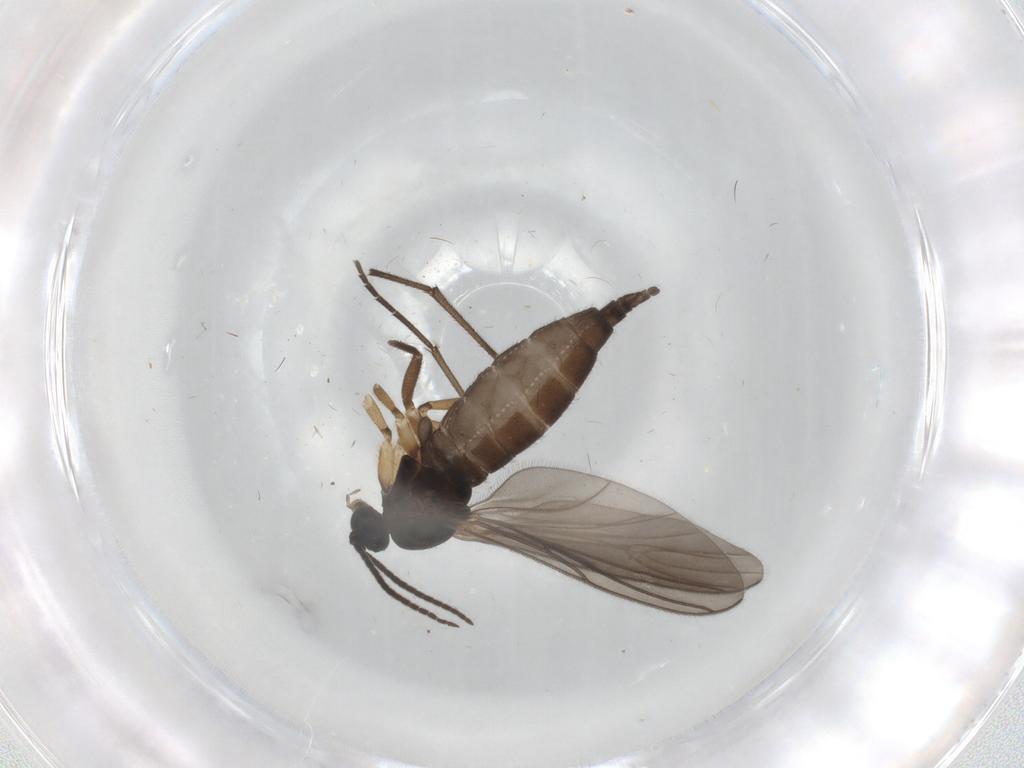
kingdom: Animalia
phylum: Arthropoda
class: Insecta
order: Diptera
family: Sciaridae
